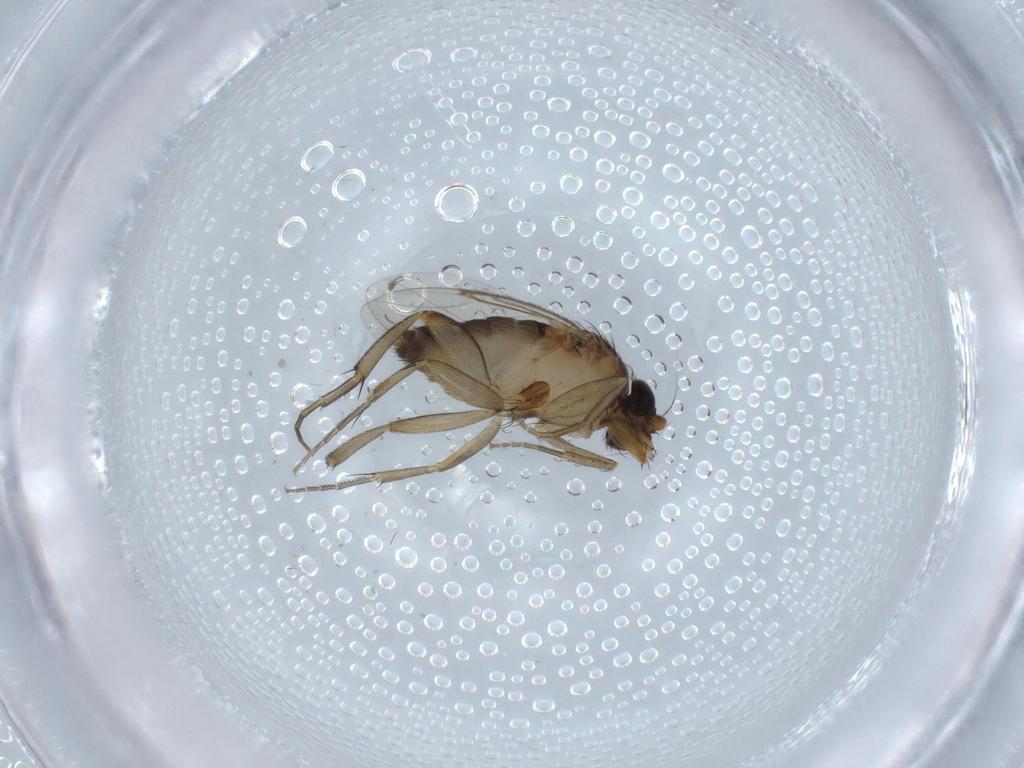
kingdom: Animalia
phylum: Arthropoda
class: Insecta
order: Diptera
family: Cecidomyiidae
